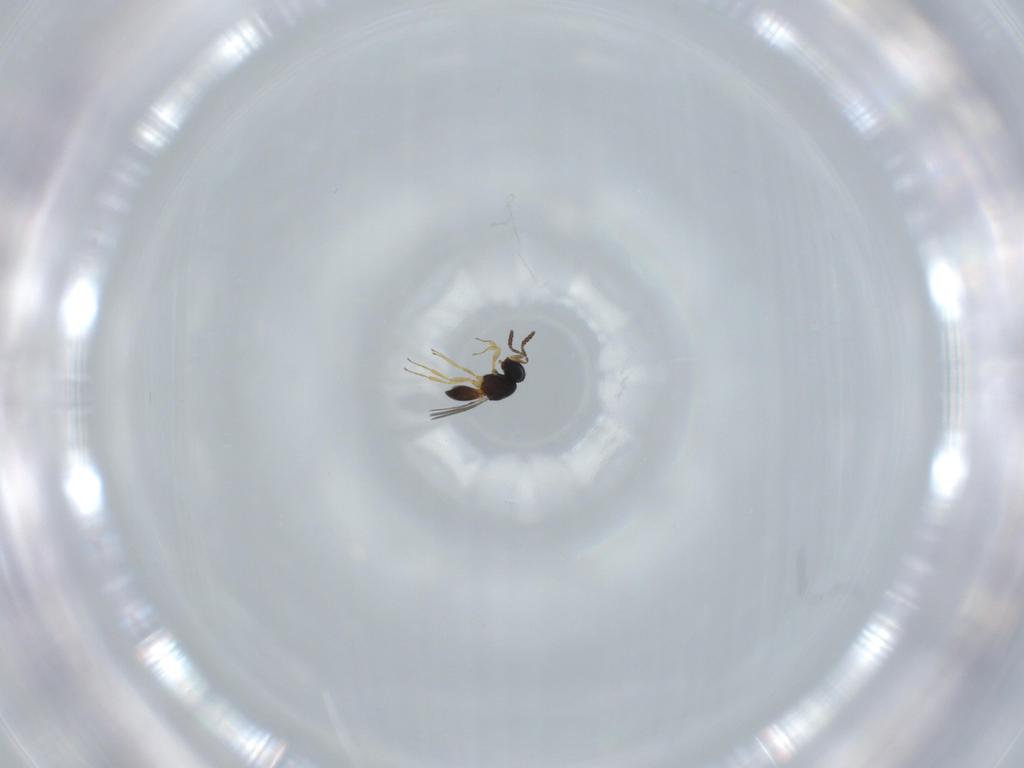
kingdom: Animalia
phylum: Arthropoda
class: Insecta
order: Hymenoptera
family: Scelionidae
